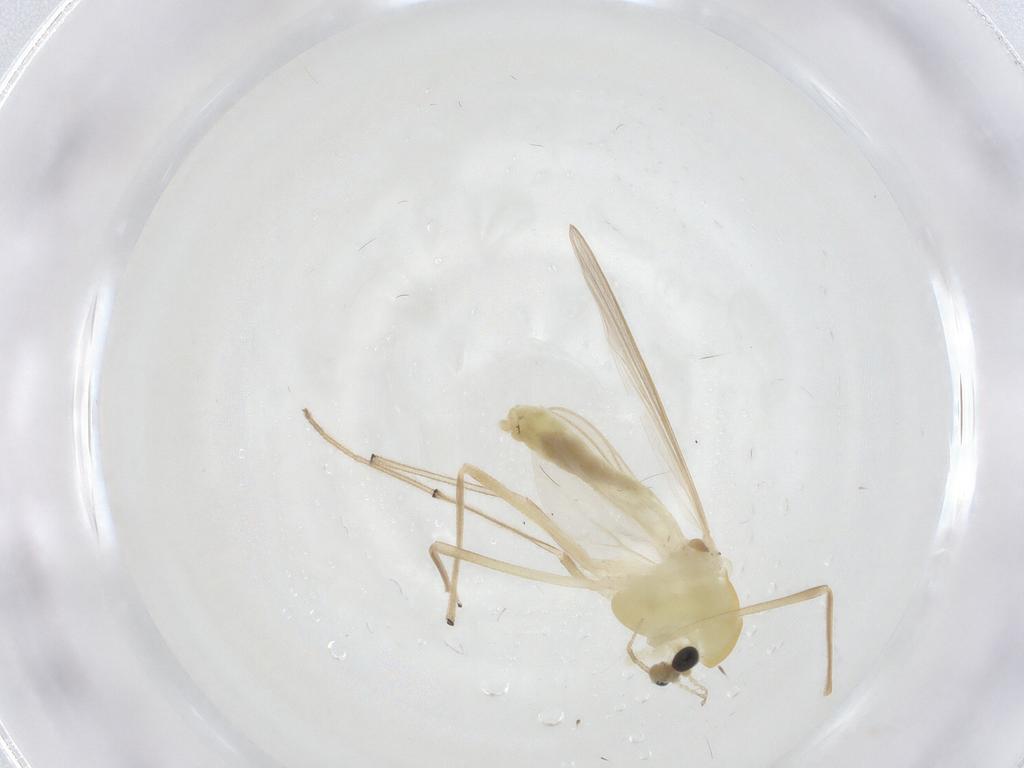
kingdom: Animalia
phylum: Arthropoda
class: Insecta
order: Diptera
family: Chironomidae
